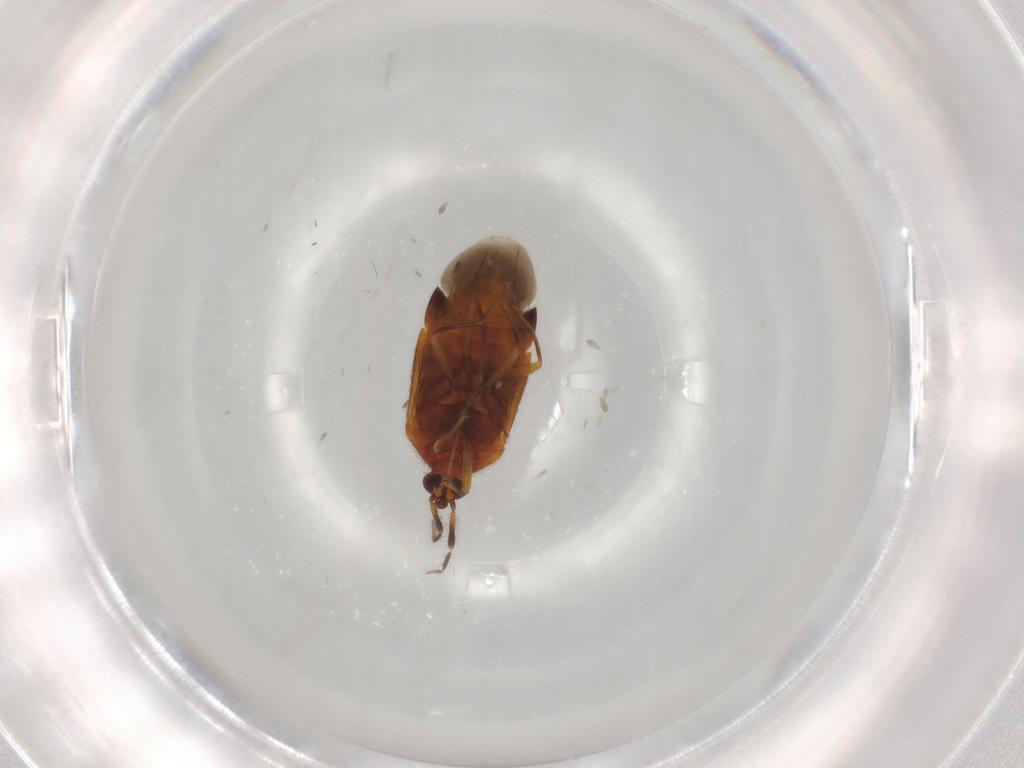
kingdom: Animalia
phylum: Arthropoda
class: Insecta
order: Hemiptera
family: Anthocoridae
